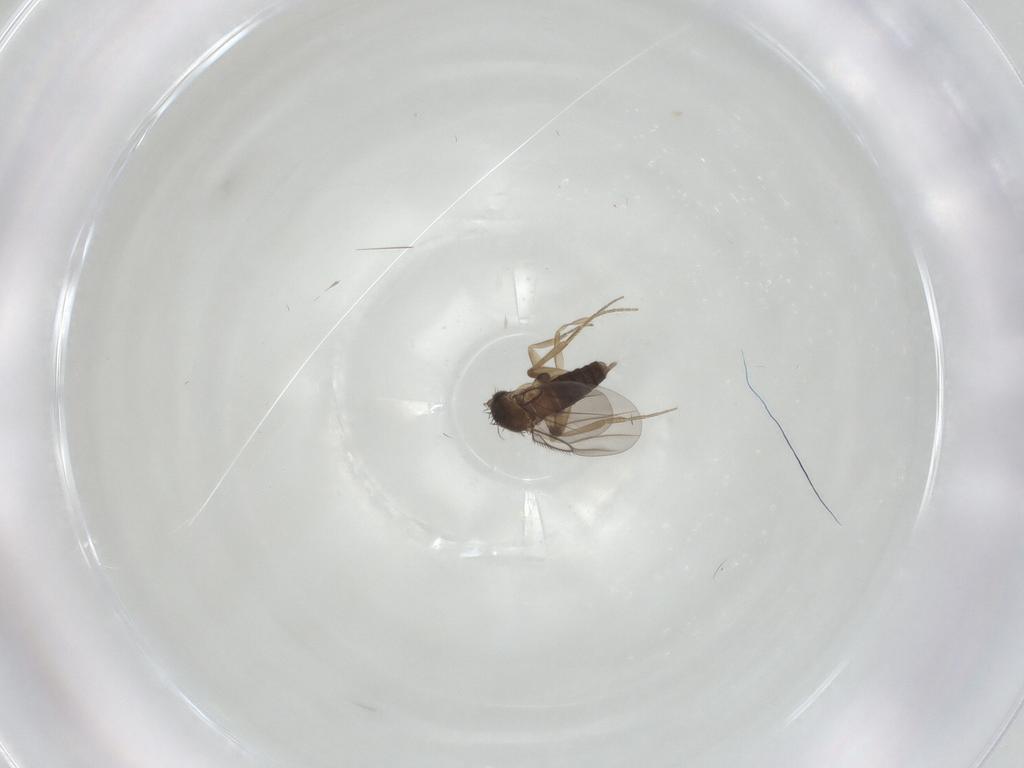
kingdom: Animalia
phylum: Arthropoda
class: Insecta
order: Diptera
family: Phoridae
